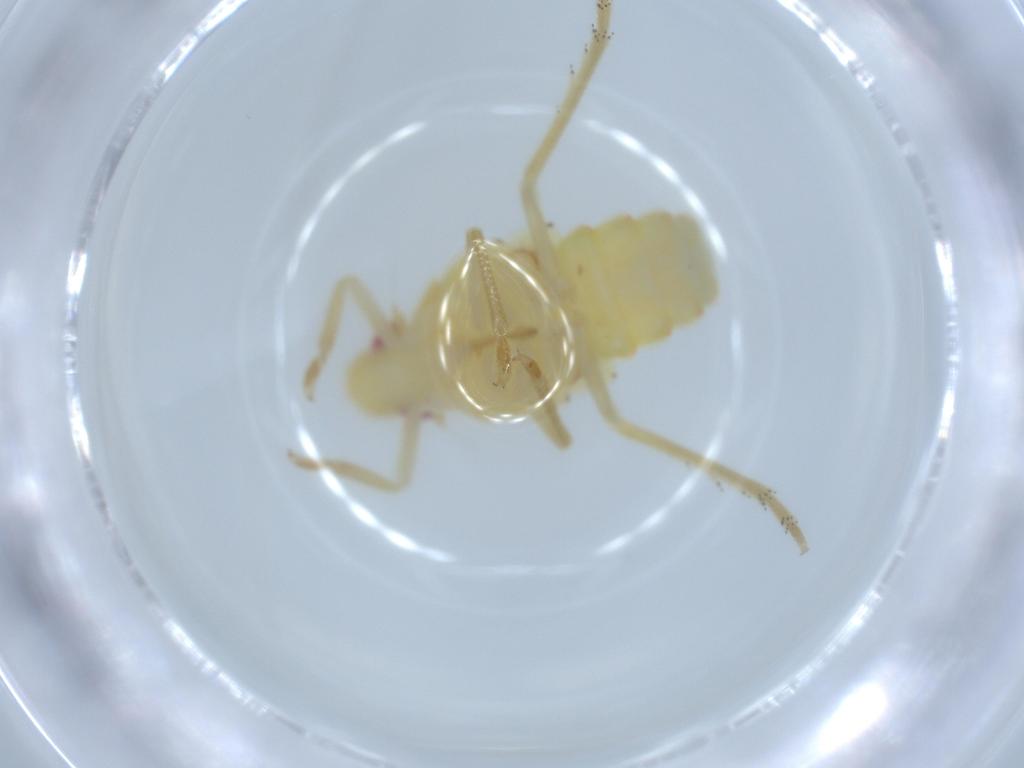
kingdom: Animalia
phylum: Arthropoda
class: Insecta
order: Hemiptera
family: Tropiduchidae
